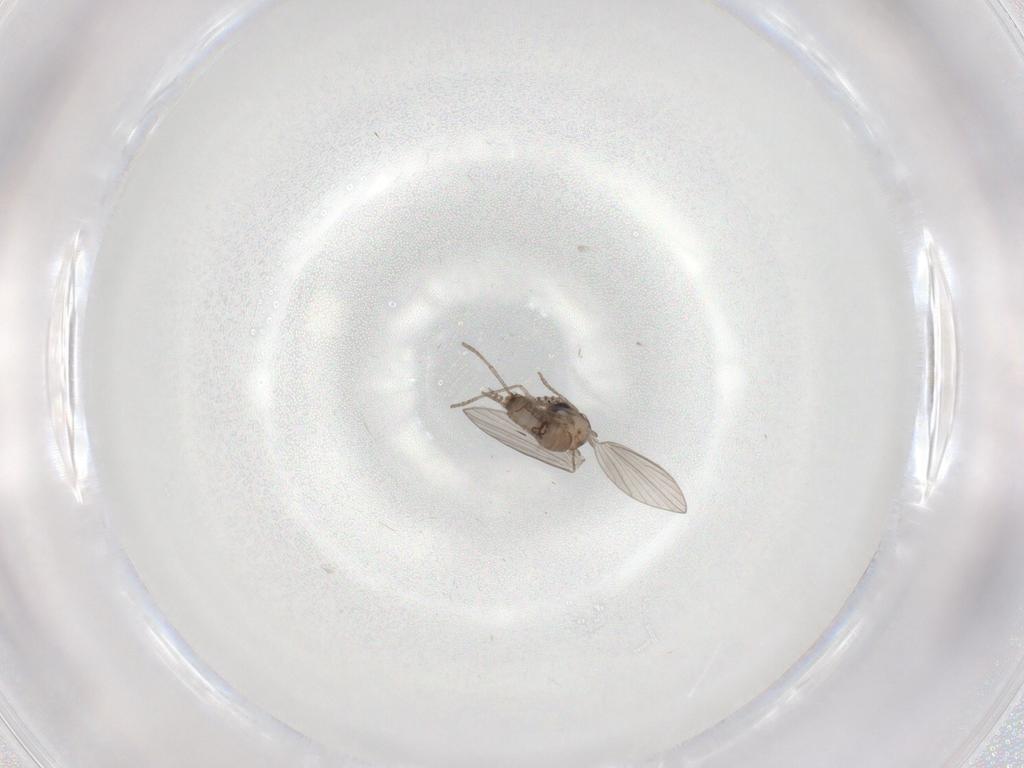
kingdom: Animalia
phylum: Arthropoda
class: Insecta
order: Diptera
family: Psychodidae
